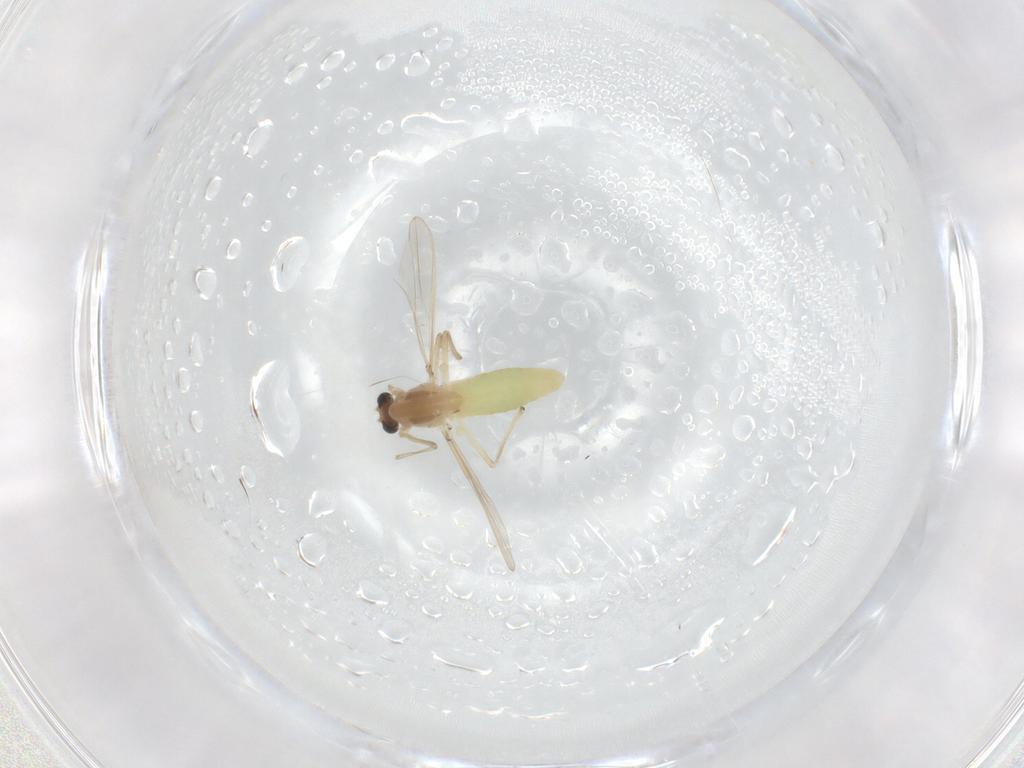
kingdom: Animalia
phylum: Arthropoda
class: Insecta
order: Diptera
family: Chironomidae
